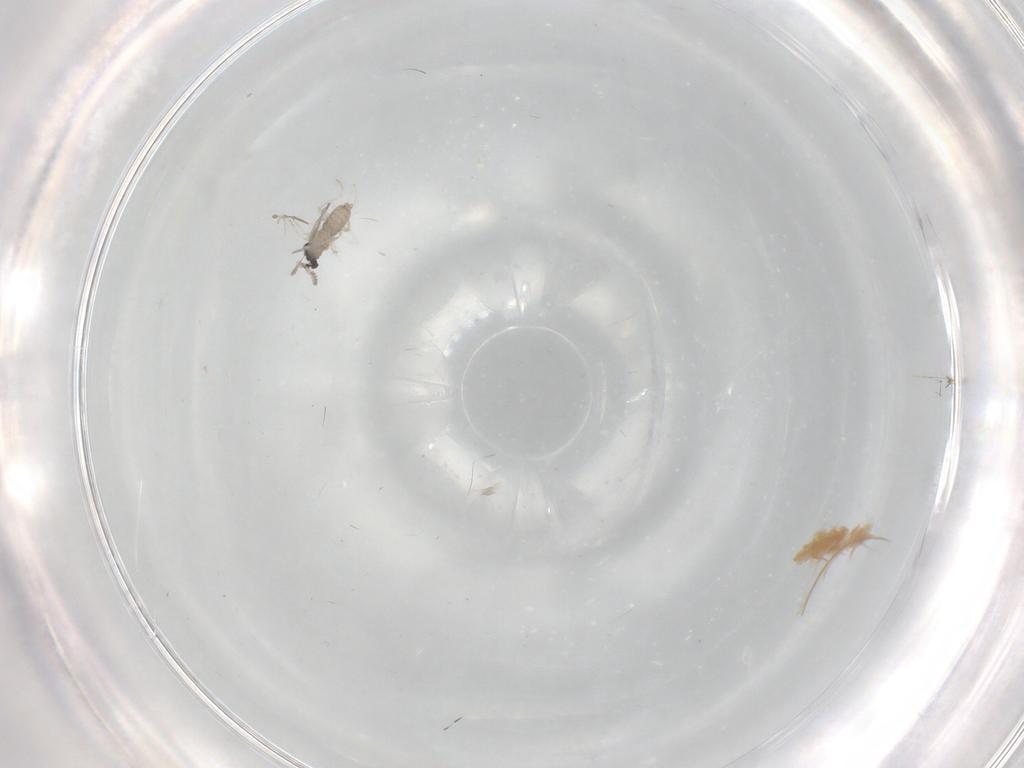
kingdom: Animalia
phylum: Arthropoda
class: Insecta
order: Diptera
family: Cecidomyiidae
